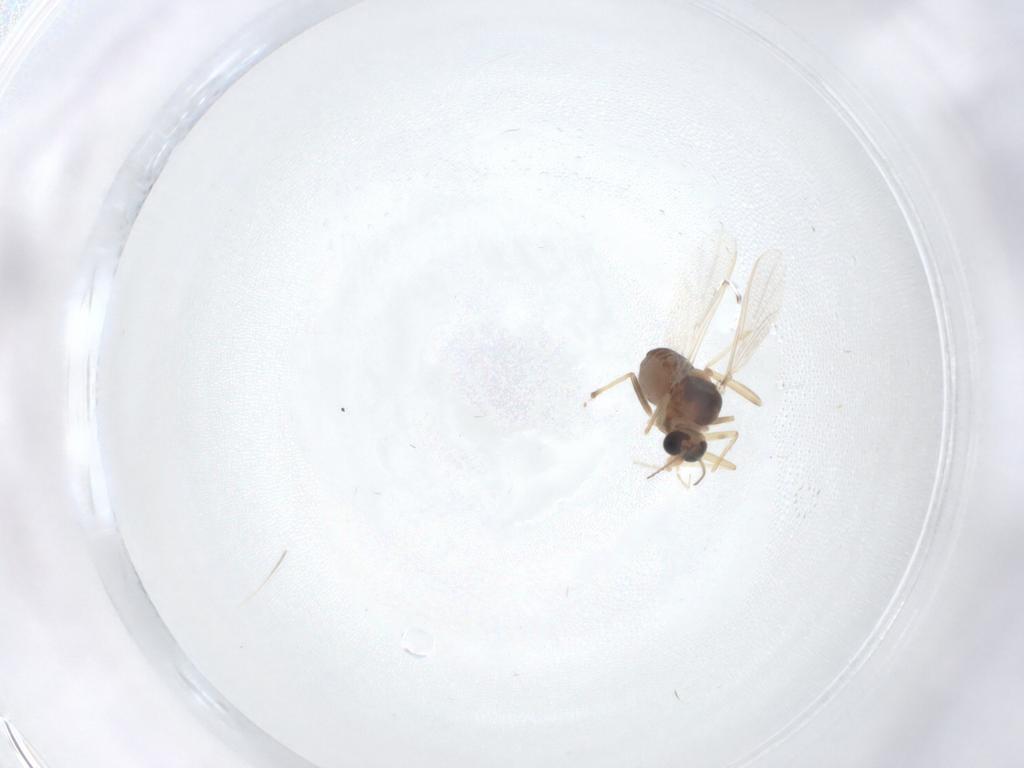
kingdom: Animalia
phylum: Arthropoda
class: Insecta
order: Diptera
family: Chironomidae
